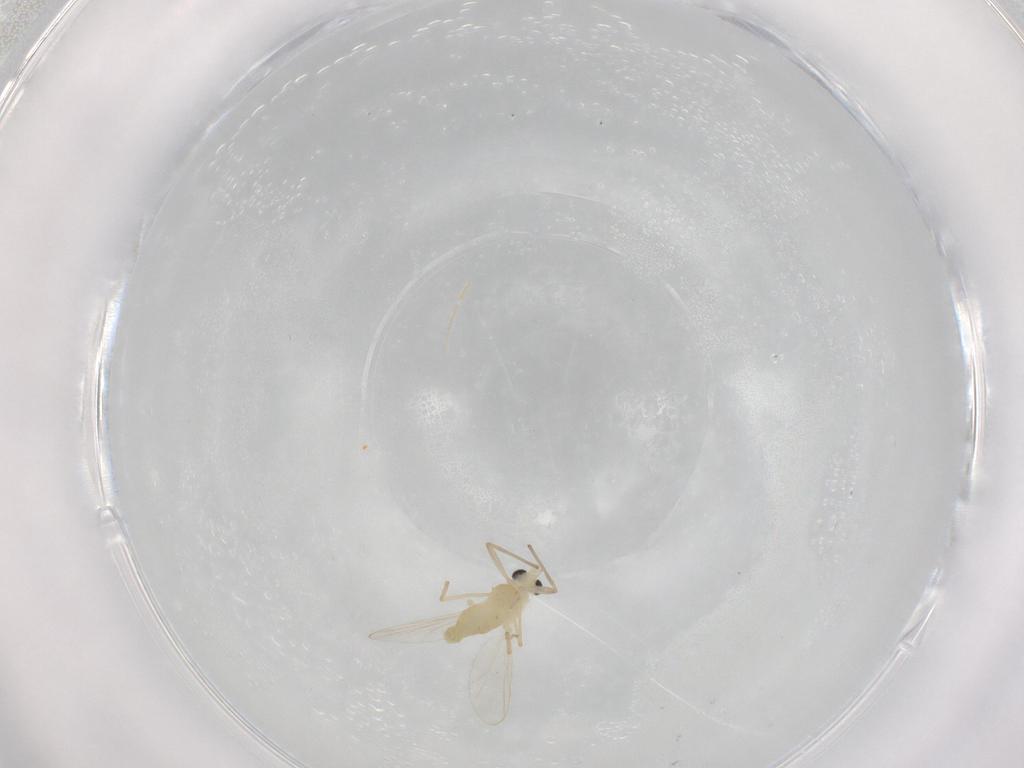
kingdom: Animalia
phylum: Arthropoda
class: Insecta
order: Diptera
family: Chironomidae
